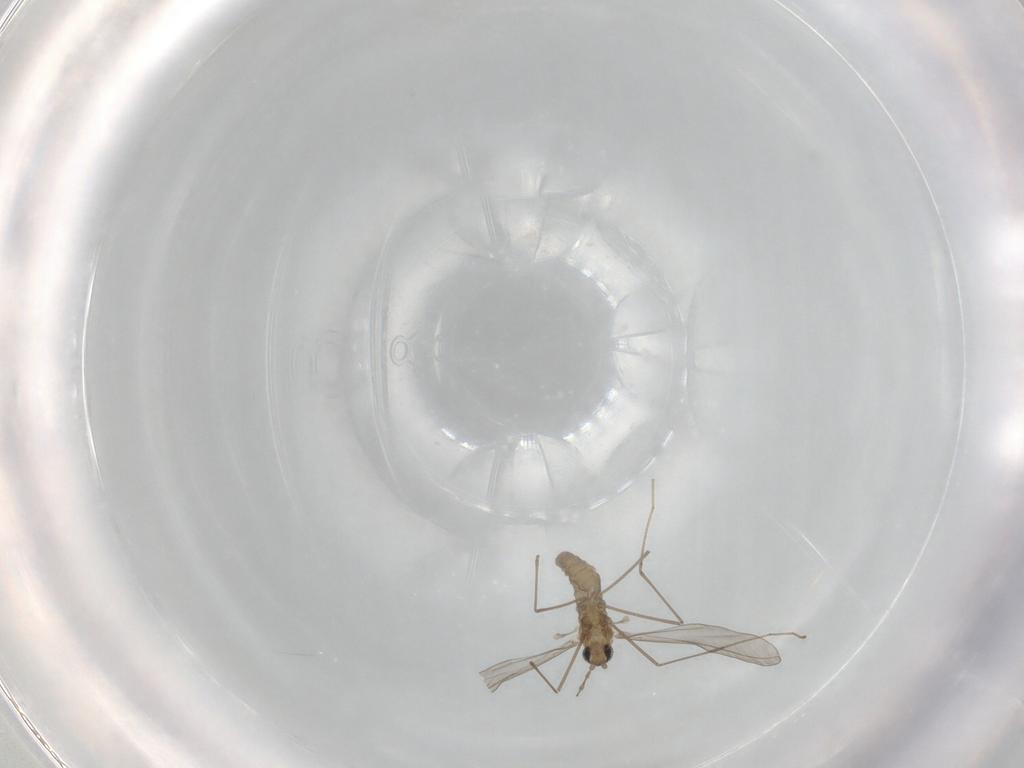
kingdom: Animalia
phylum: Arthropoda
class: Insecta
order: Diptera
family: Cecidomyiidae
